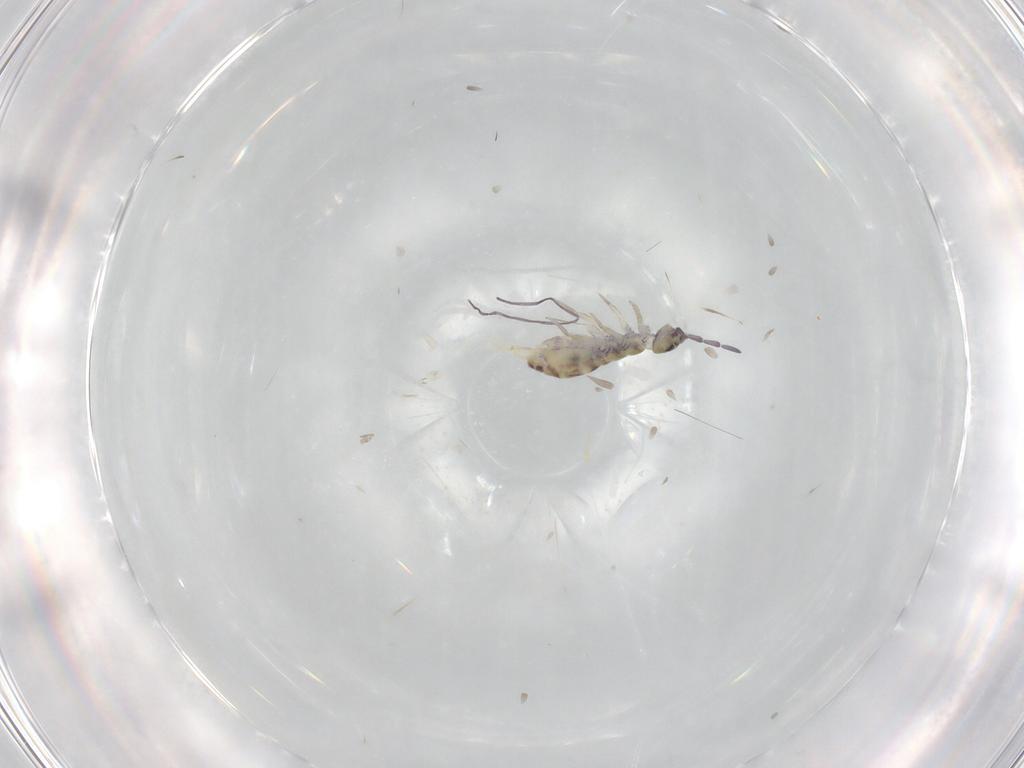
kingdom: Animalia
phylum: Arthropoda
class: Collembola
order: Entomobryomorpha
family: Isotomidae
